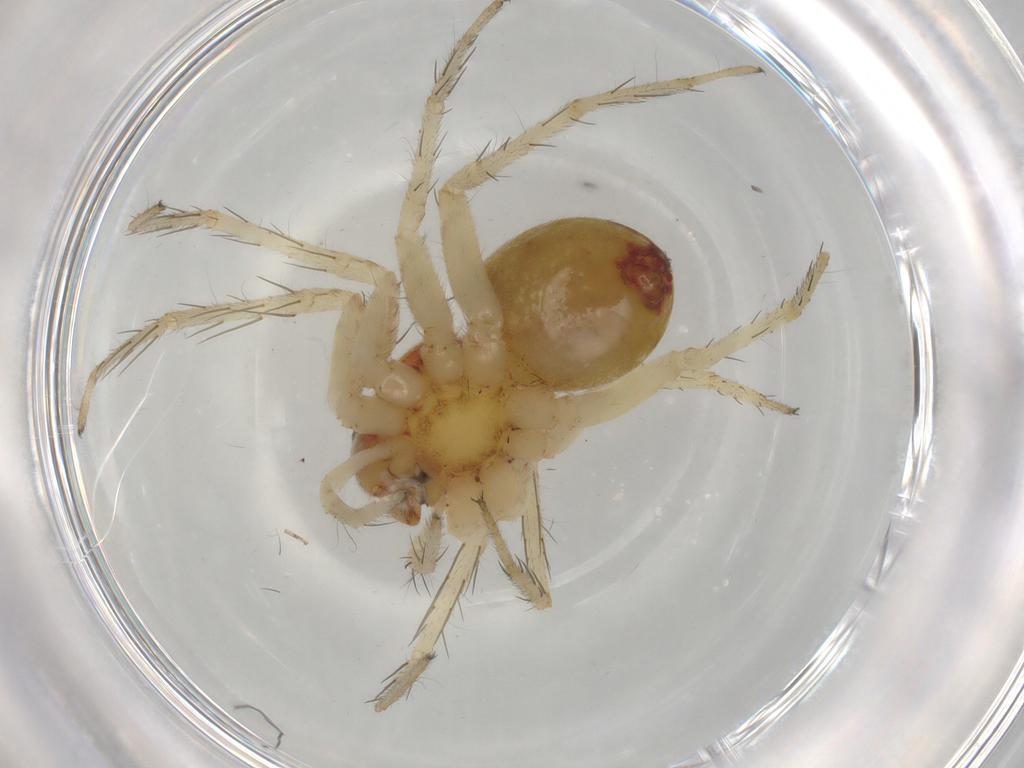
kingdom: Animalia
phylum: Arthropoda
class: Arachnida
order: Araneae
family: Pisauridae
